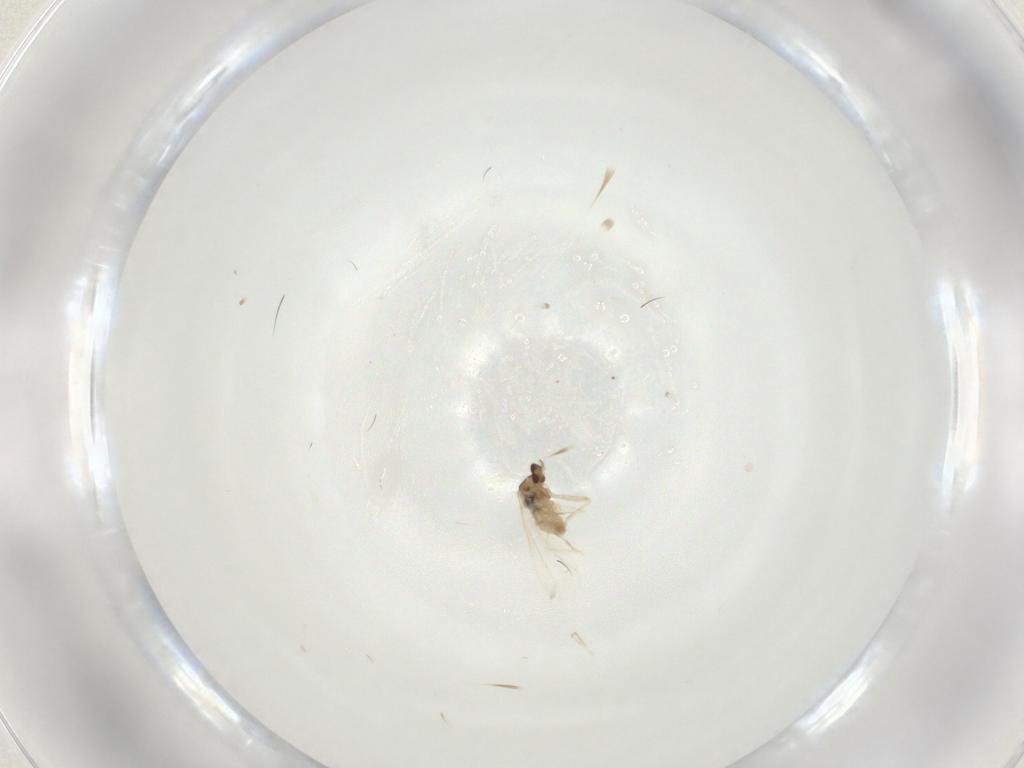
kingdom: Animalia
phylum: Arthropoda
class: Insecta
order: Diptera
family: Cecidomyiidae
